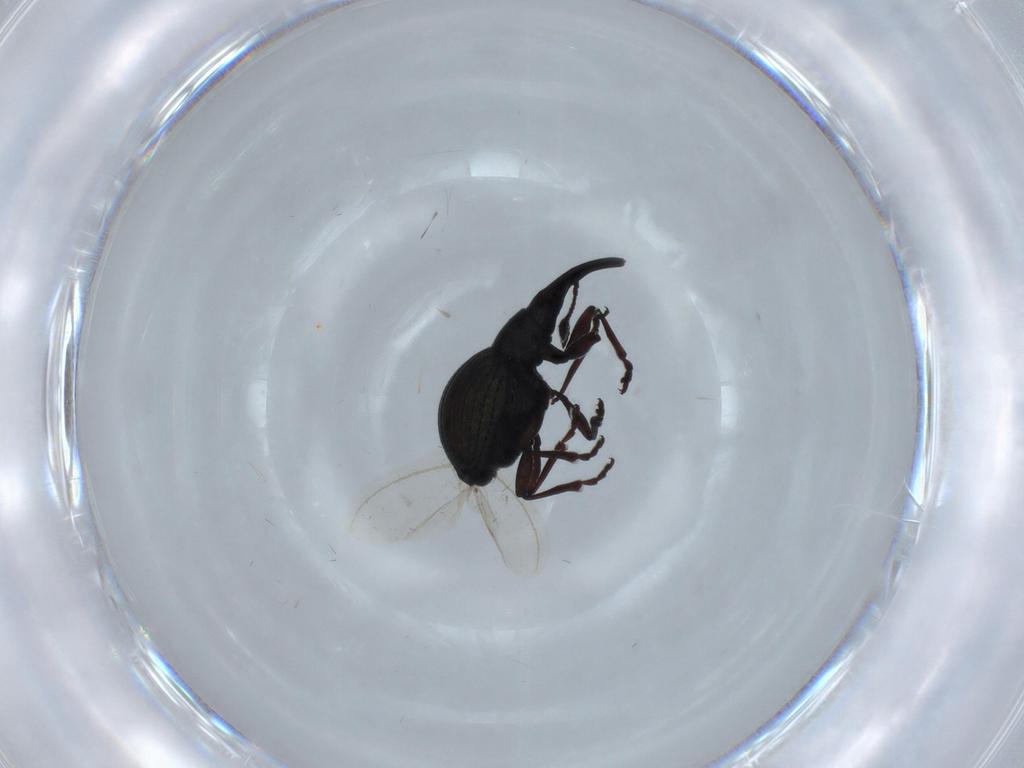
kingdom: Animalia
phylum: Arthropoda
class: Insecta
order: Coleoptera
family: Brentidae
